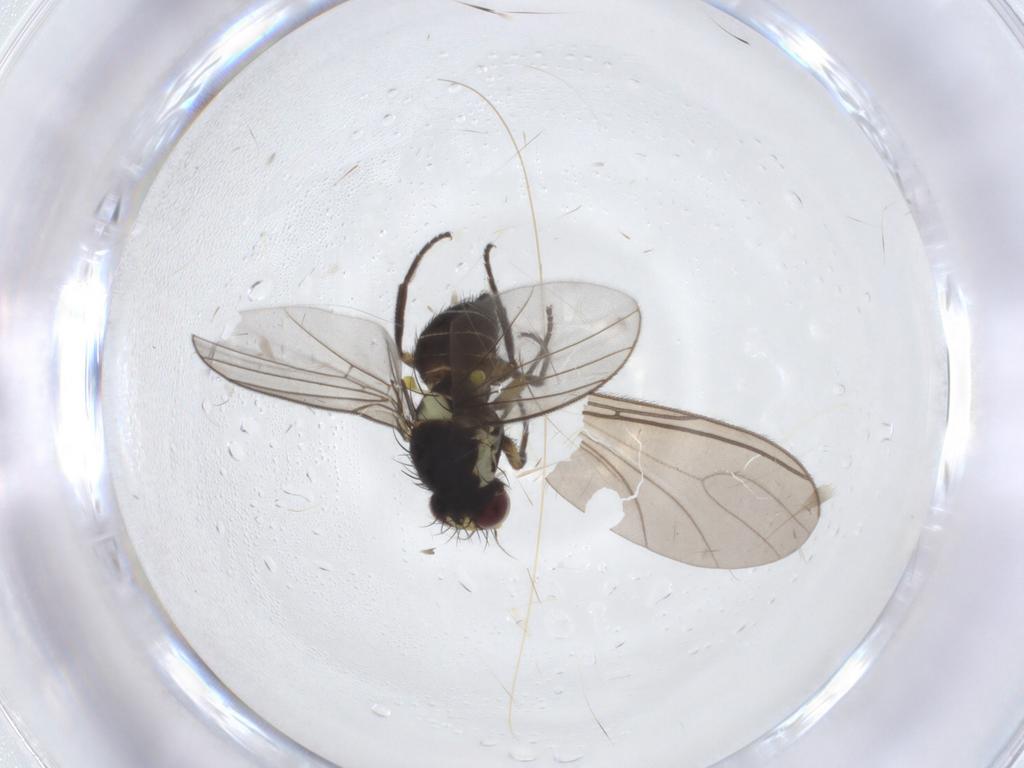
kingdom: Animalia
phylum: Arthropoda
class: Insecta
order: Diptera
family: Agromyzidae
